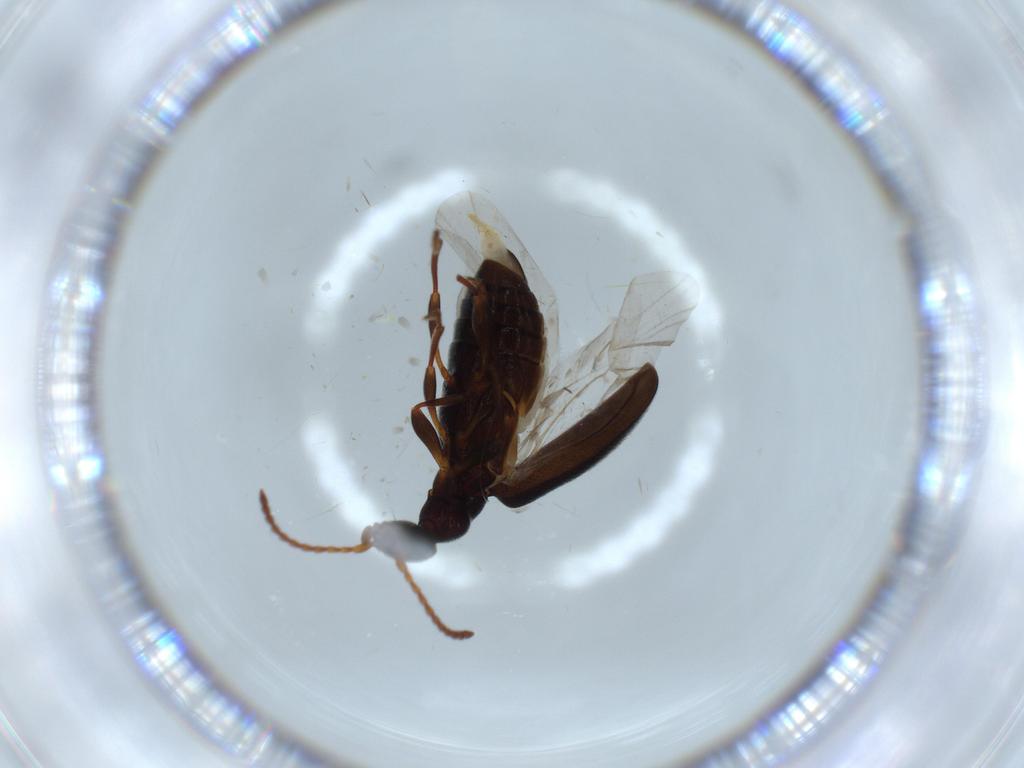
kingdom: Animalia
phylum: Arthropoda
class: Insecta
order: Coleoptera
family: Anthicidae
